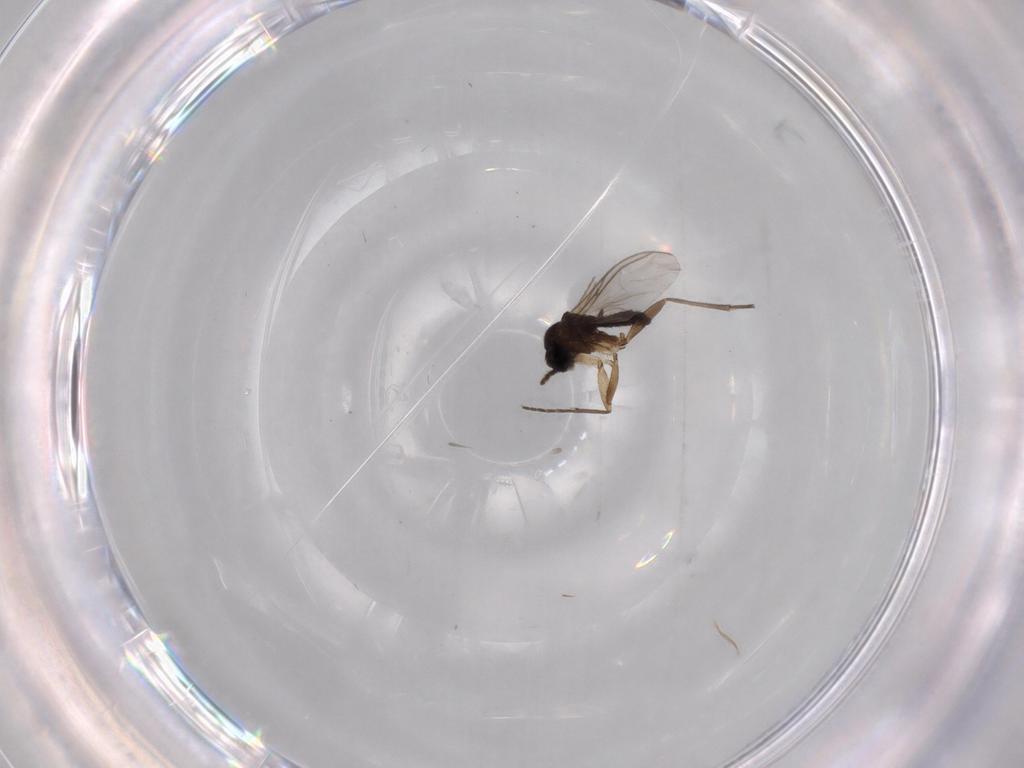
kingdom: Animalia
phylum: Arthropoda
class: Insecta
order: Diptera
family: Sciaridae
